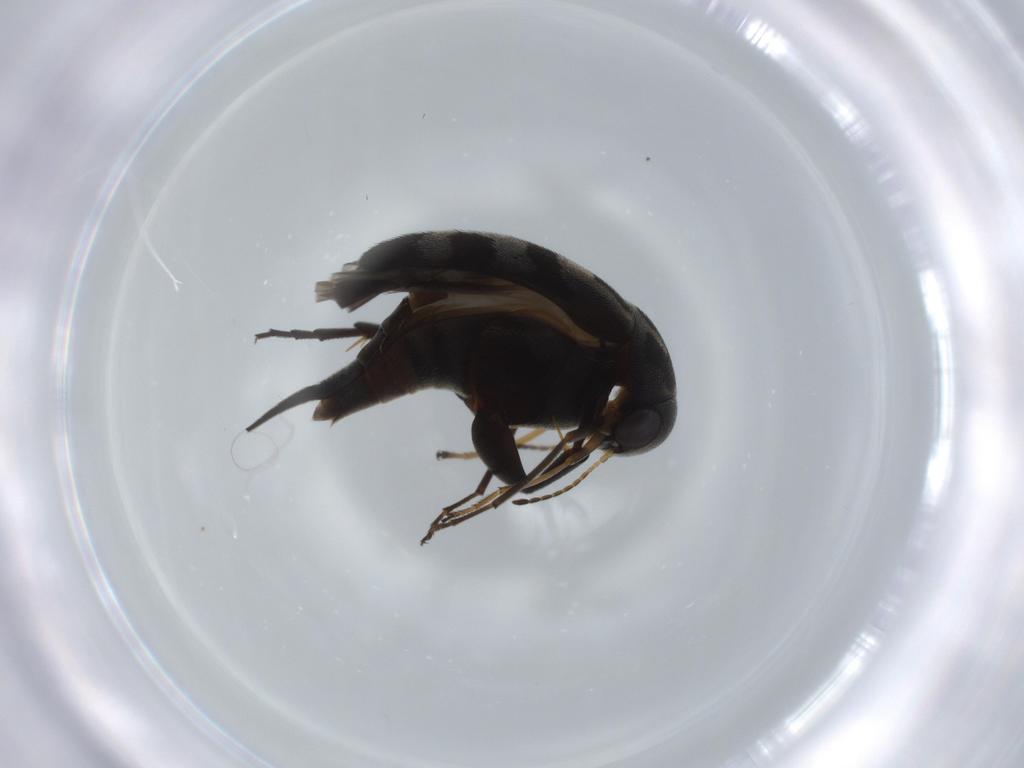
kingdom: Animalia
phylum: Arthropoda
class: Insecta
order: Coleoptera
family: Mordellidae
